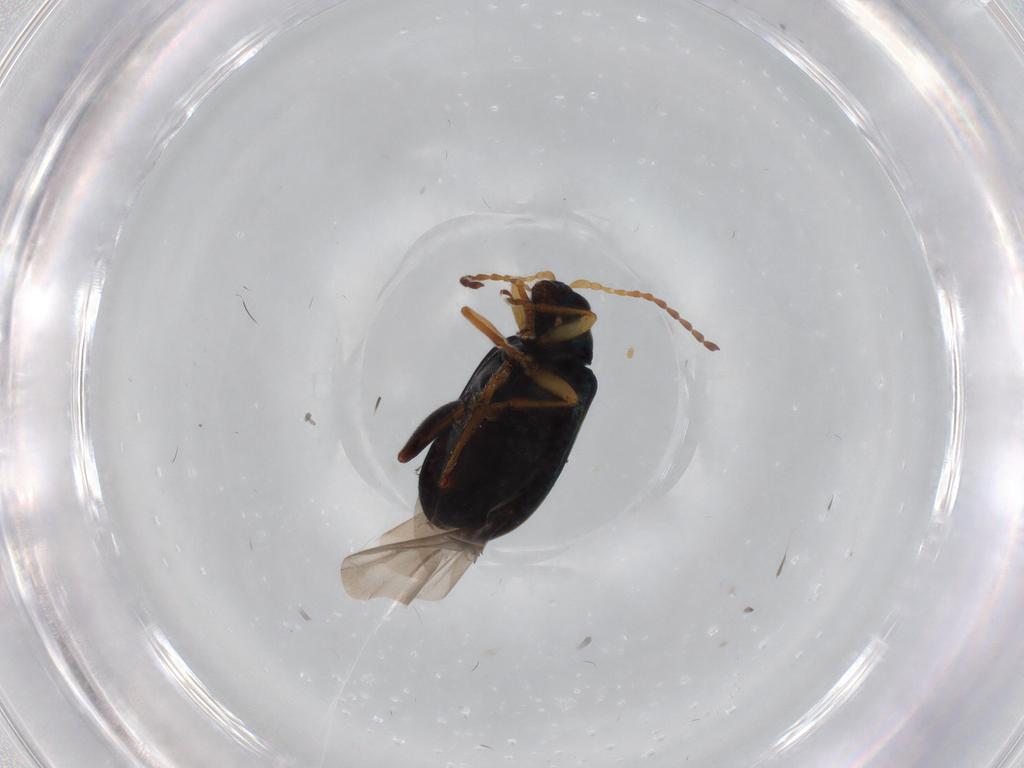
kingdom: Animalia
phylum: Arthropoda
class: Insecta
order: Coleoptera
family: Chrysomelidae
